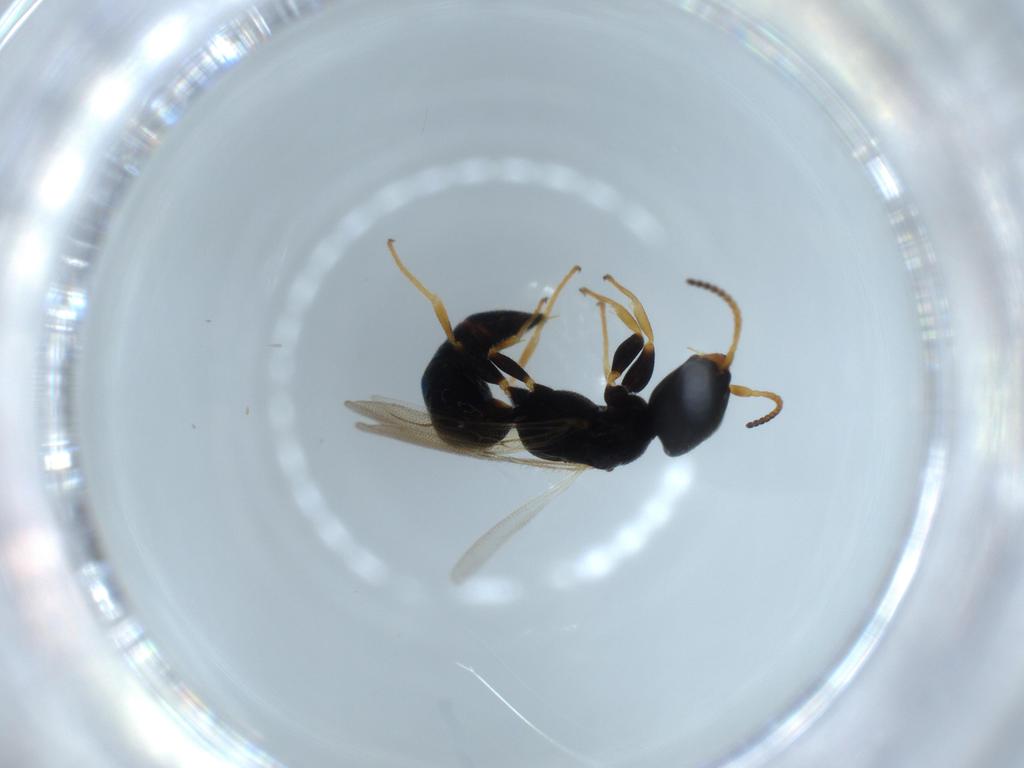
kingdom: Animalia
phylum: Arthropoda
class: Insecta
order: Hymenoptera
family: Bethylidae
